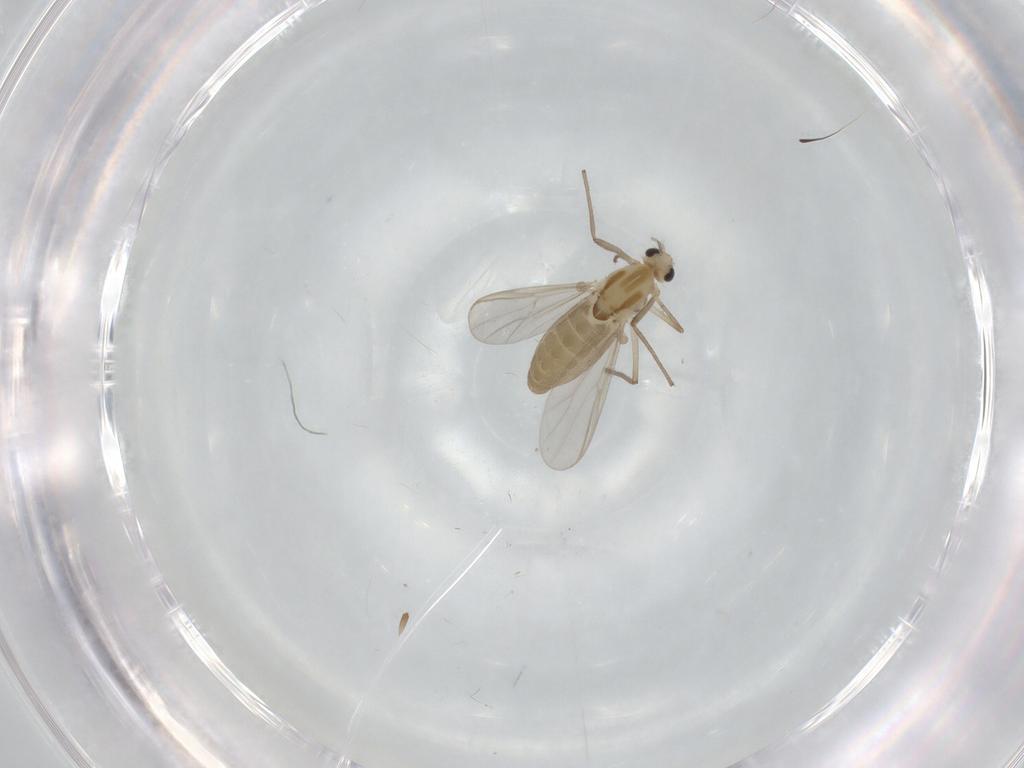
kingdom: Animalia
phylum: Arthropoda
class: Insecta
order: Diptera
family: Chironomidae
